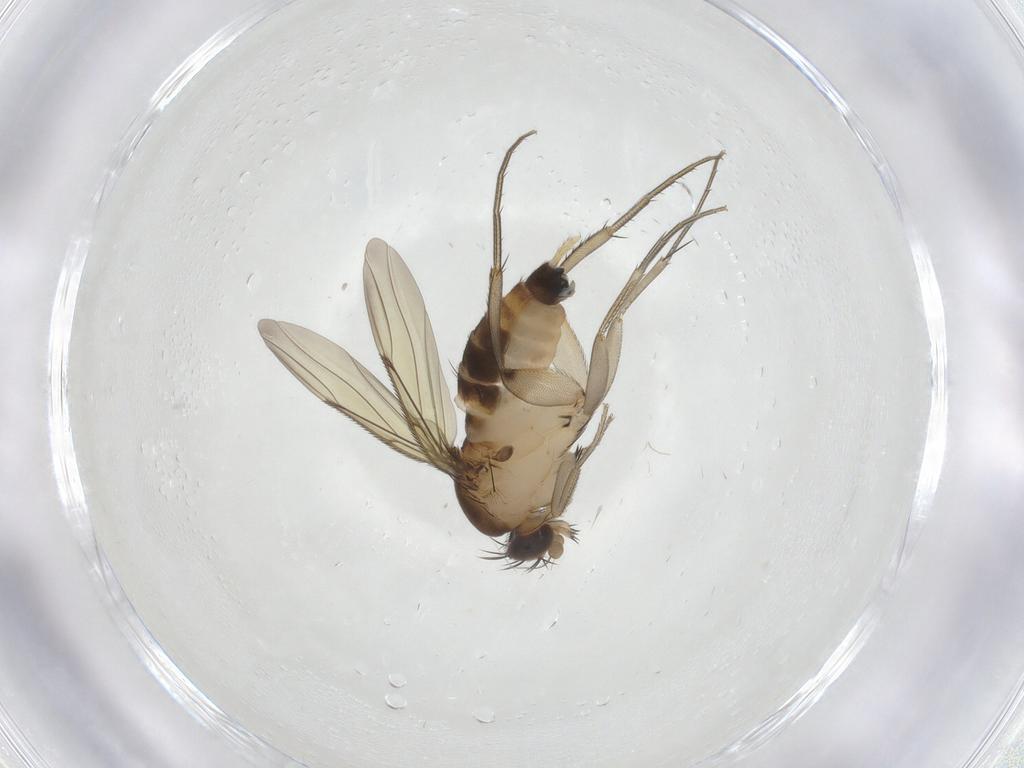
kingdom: Animalia
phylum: Arthropoda
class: Insecta
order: Diptera
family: Phoridae
